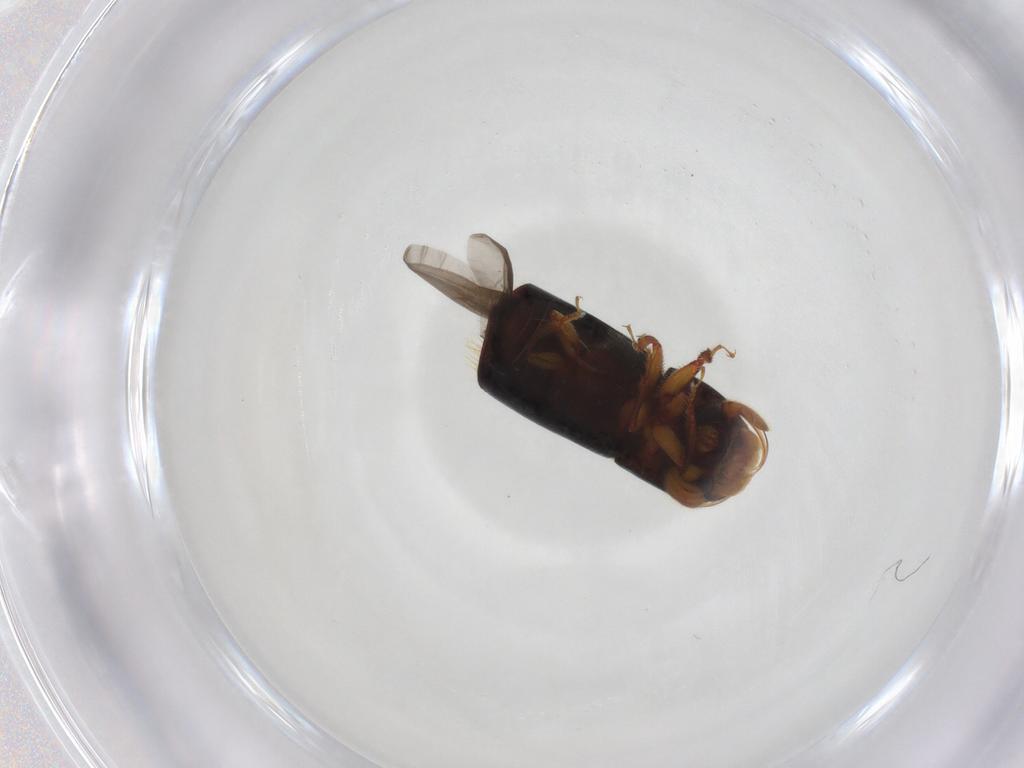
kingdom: Animalia
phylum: Arthropoda
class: Insecta
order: Coleoptera
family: Curculionidae
